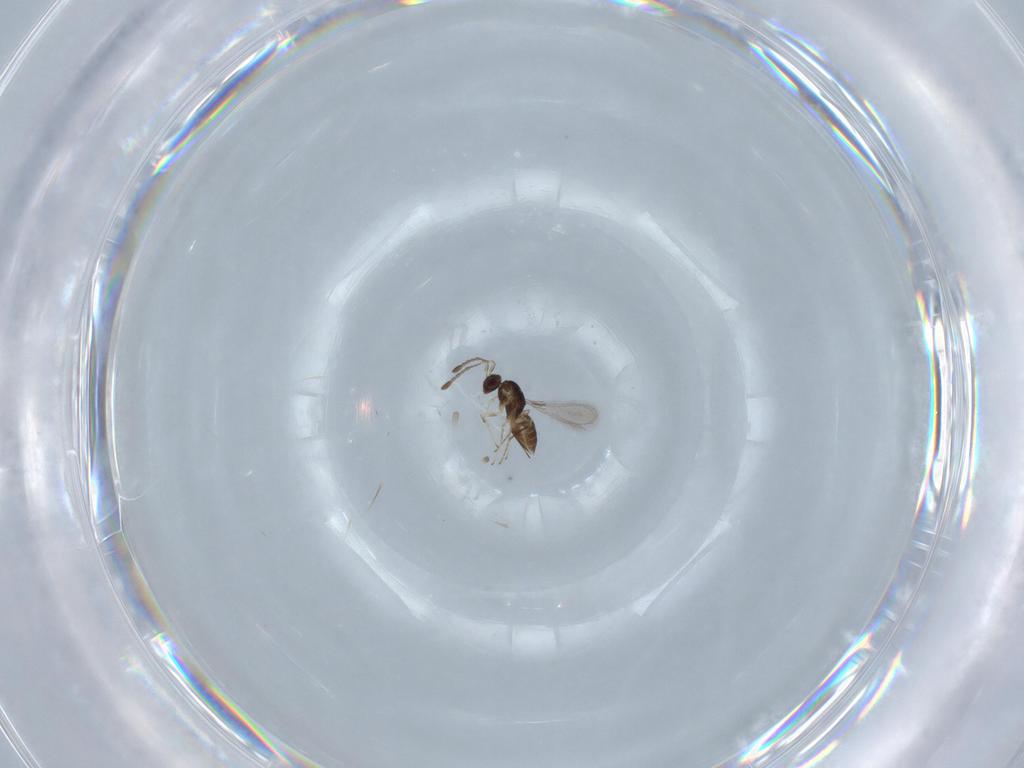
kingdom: Animalia
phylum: Arthropoda
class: Insecta
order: Hymenoptera
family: Mymaridae
